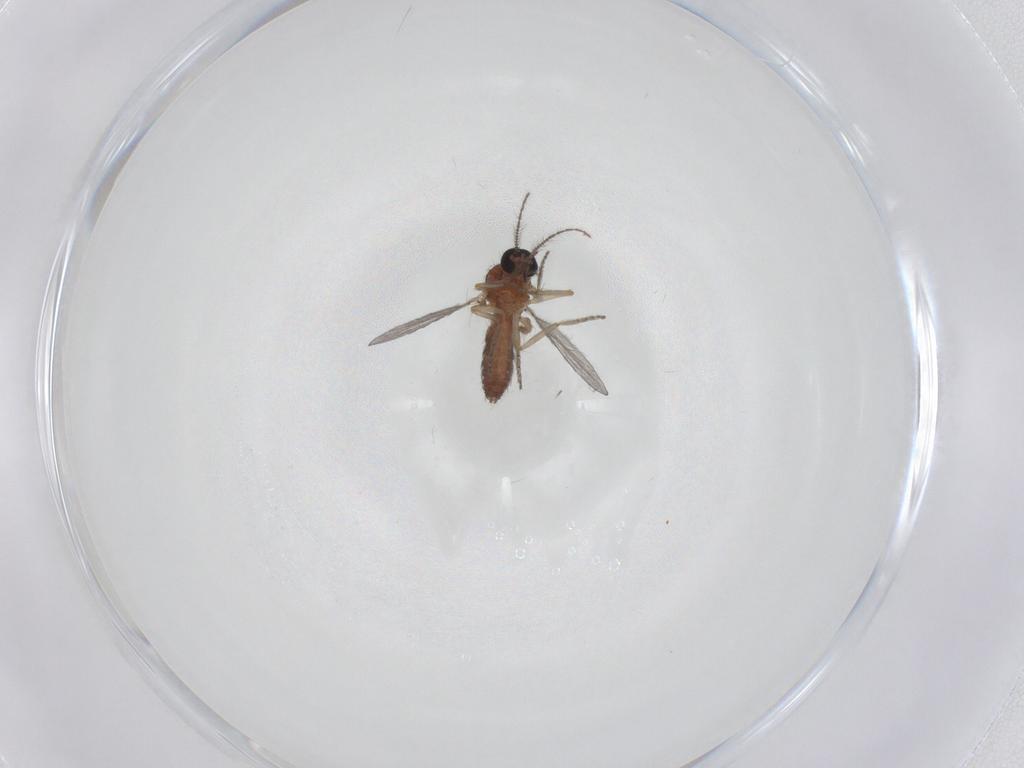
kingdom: Animalia
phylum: Arthropoda
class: Insecta
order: Diptera
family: Ceratopogonidae
